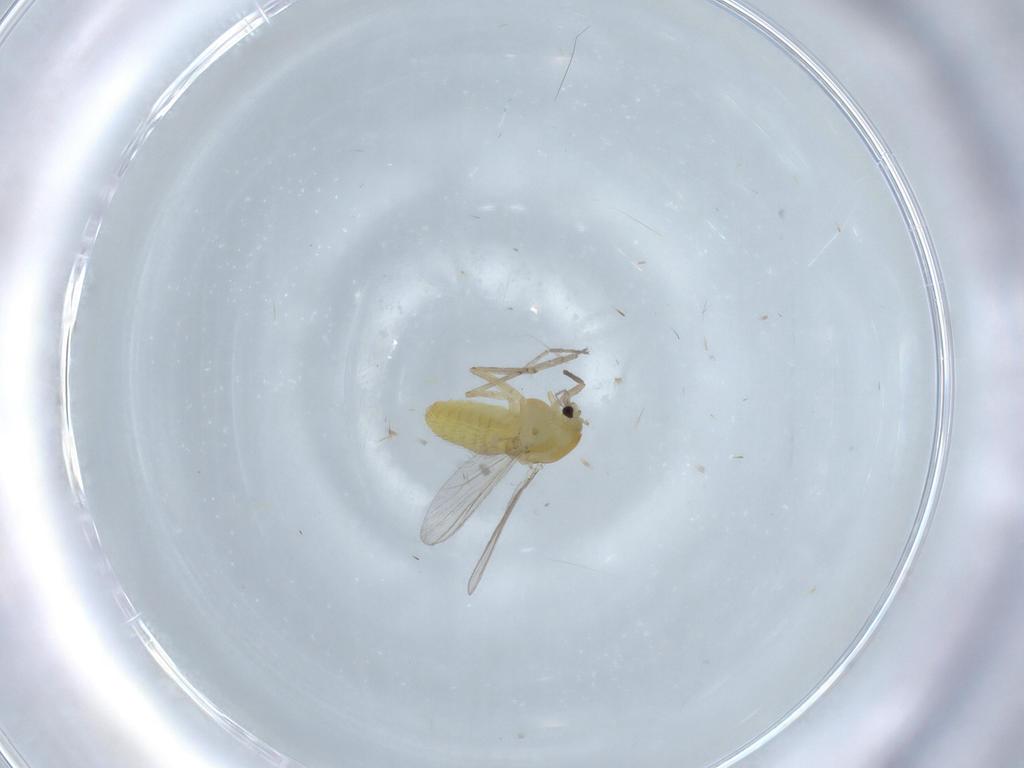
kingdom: Animalia
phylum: Arthropoda
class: Insecta
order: Diptera
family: Chironomidae
